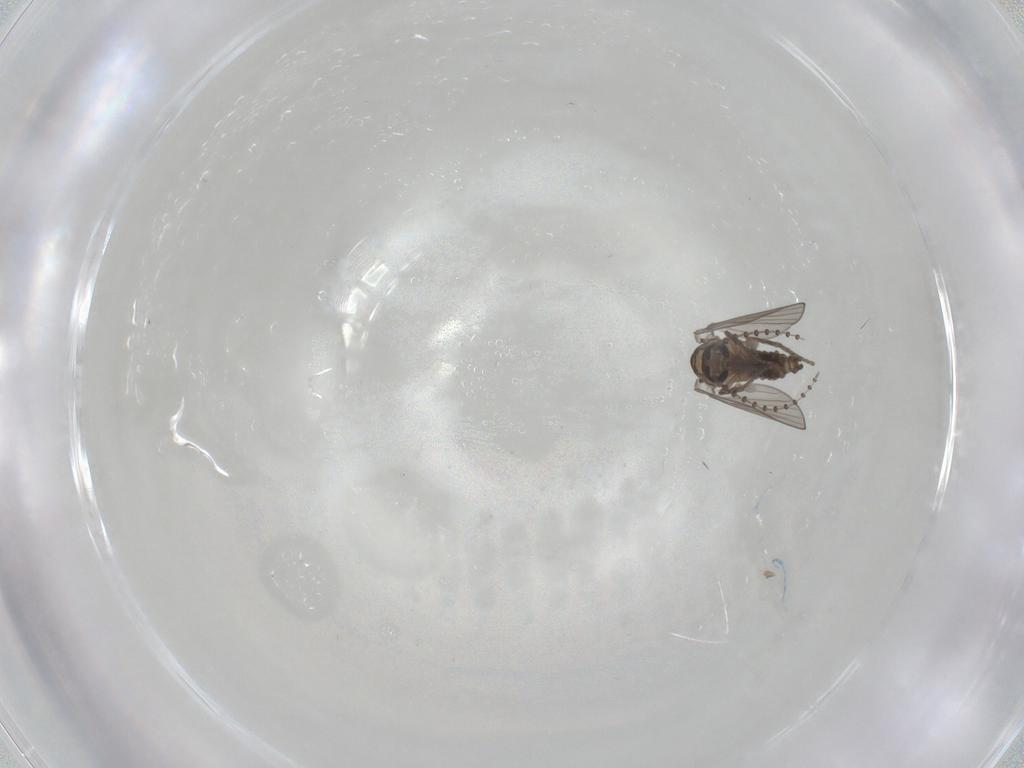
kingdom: Animalia
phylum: Arthropoda
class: Insecta
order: Diptera
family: Psychodidae
